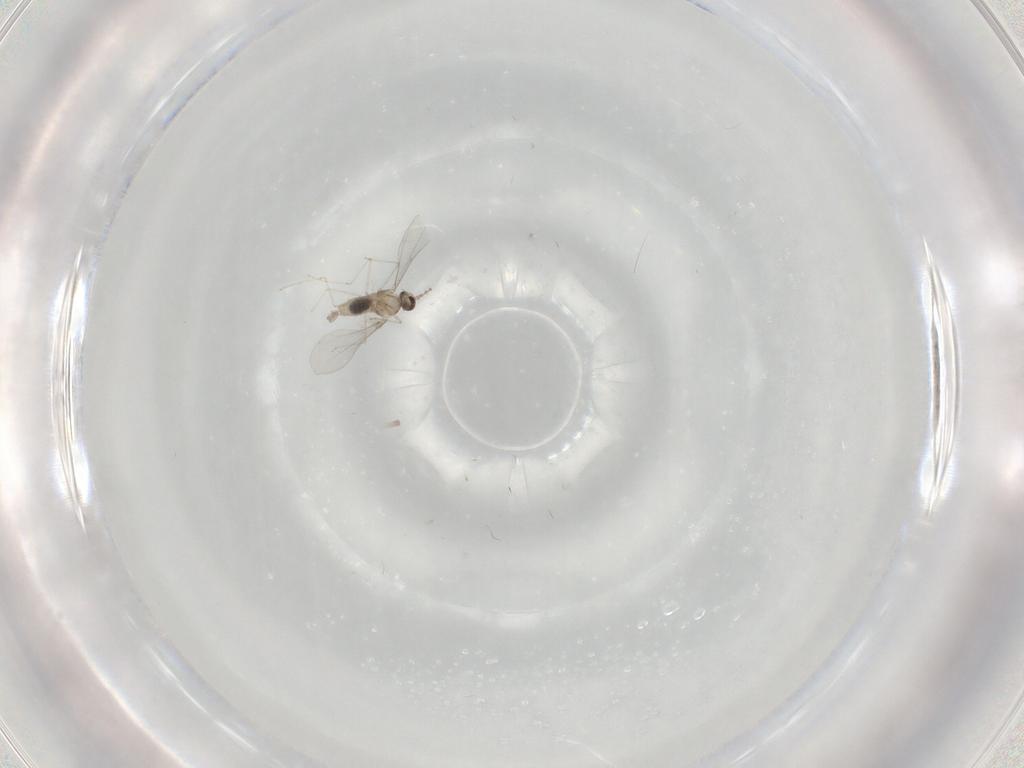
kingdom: Animalia
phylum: Arthropoda
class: Insecta
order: Diptera
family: Cecidomyiidae
